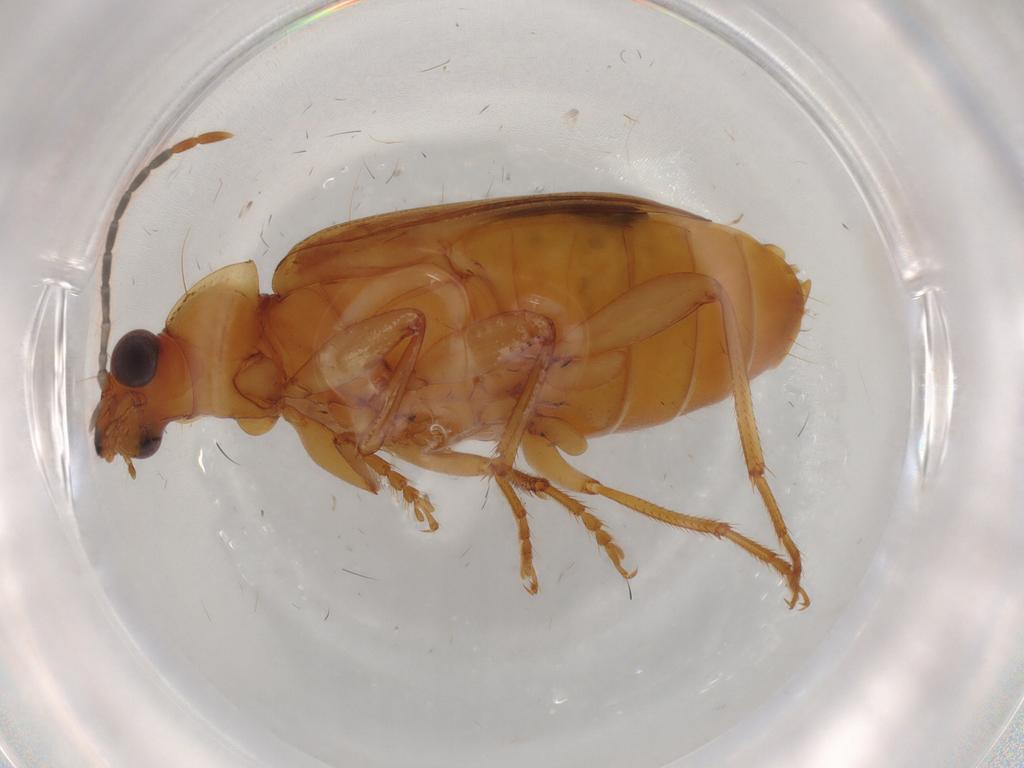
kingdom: Animalia
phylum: Arthropoda
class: Insecta
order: Coleoptera
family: Carabidae
